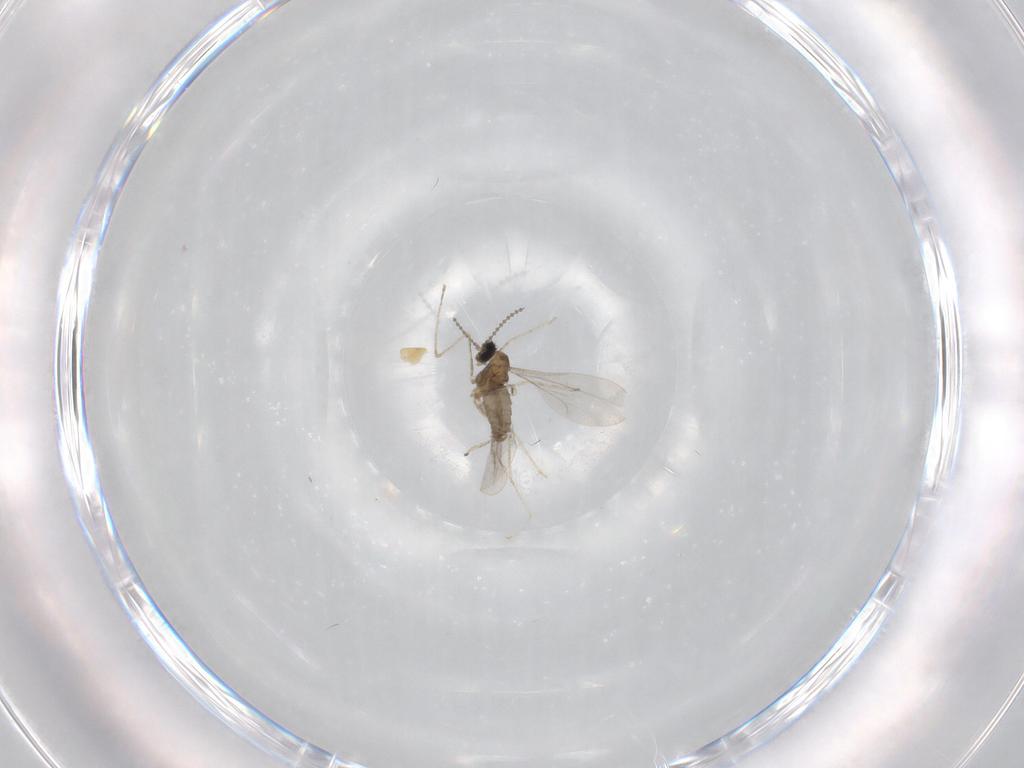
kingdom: Animalia
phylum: Arthropoda
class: Insecta
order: Diptera
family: Cecidomyiidae
